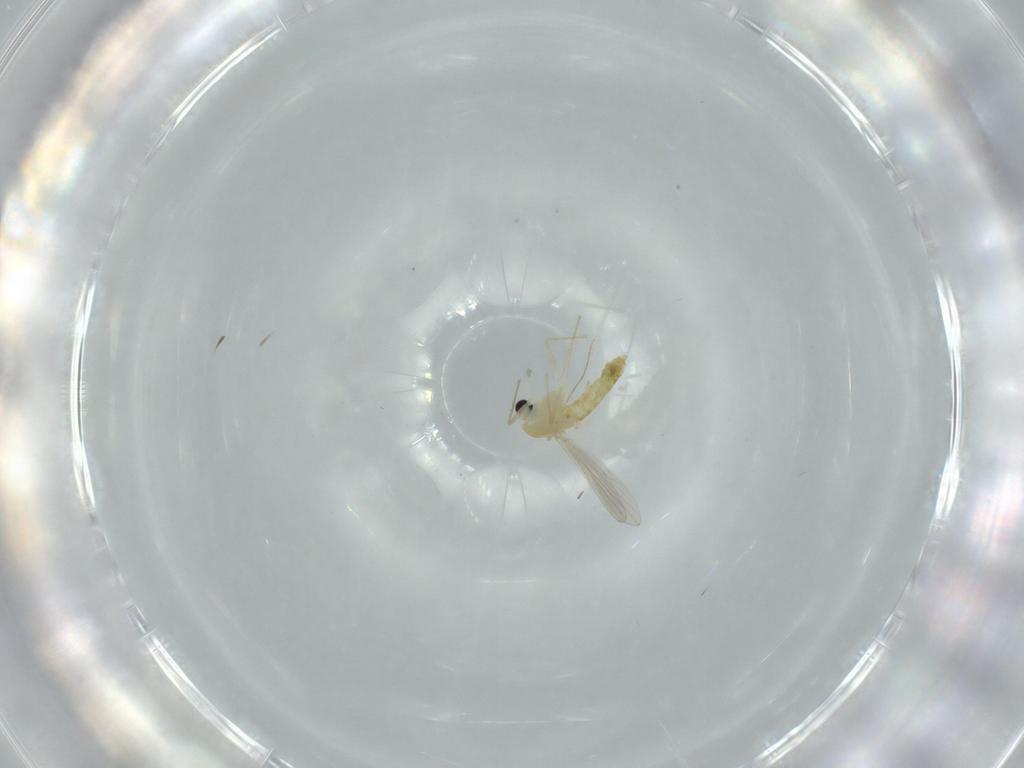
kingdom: Animalia
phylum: Arthropoda
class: Insecta
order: Diptera
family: Chironomidae
